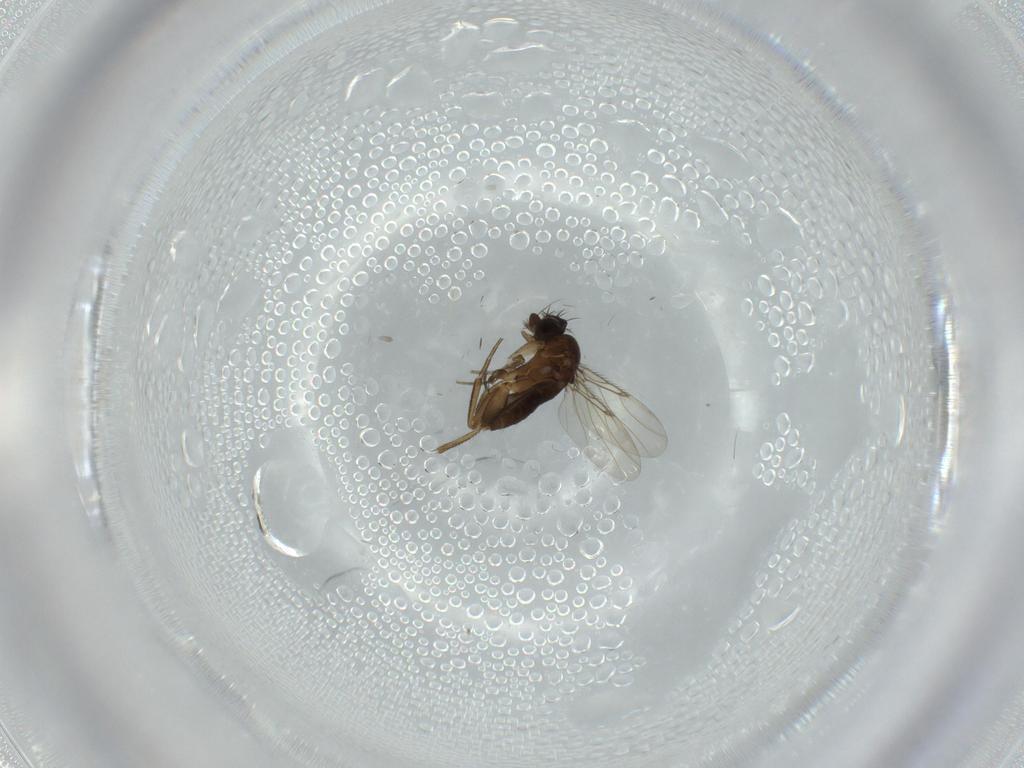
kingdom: Animalia
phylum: Arthropoda
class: Insecta
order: Diptera
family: Phoridae
